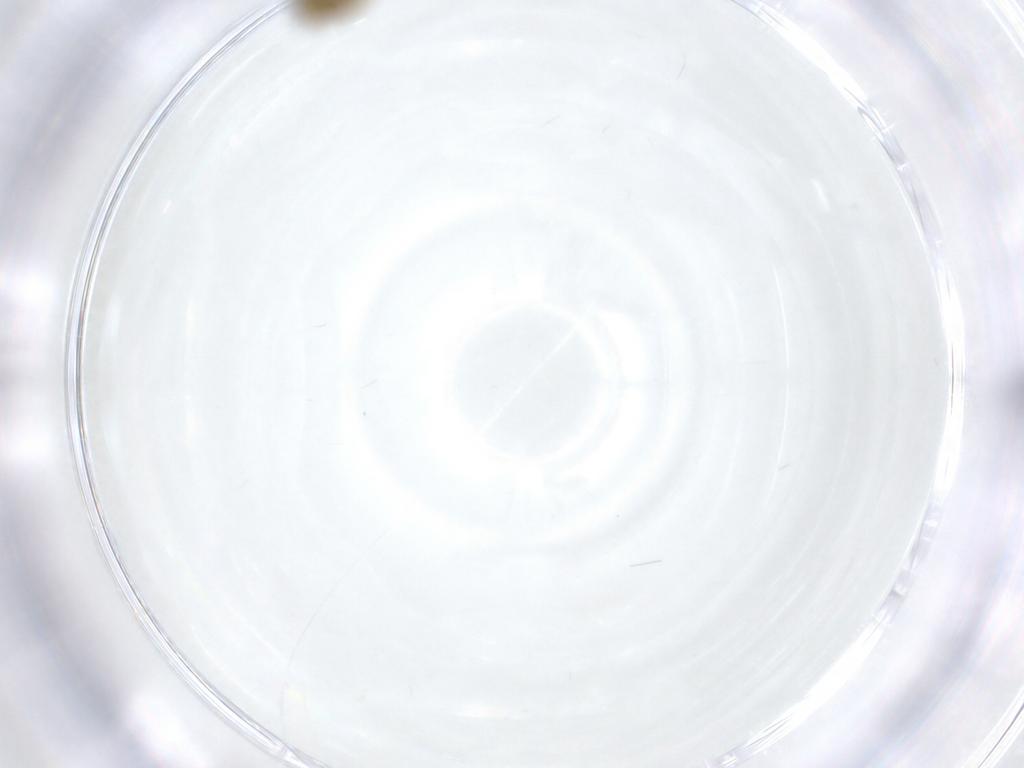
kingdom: Animalia
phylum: Arthropoda
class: Insecta
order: Diptera
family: Chironomidae
